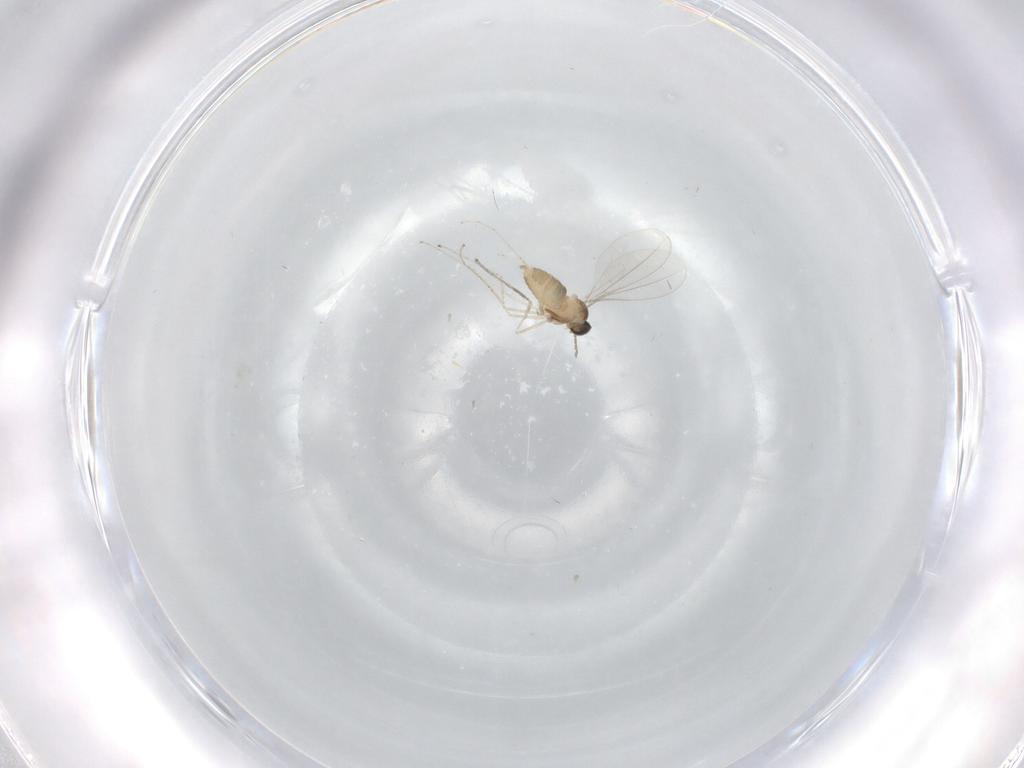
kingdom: Animalia
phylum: Arthropoda
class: Insecta
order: Diptera
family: Cecidomyiidae
